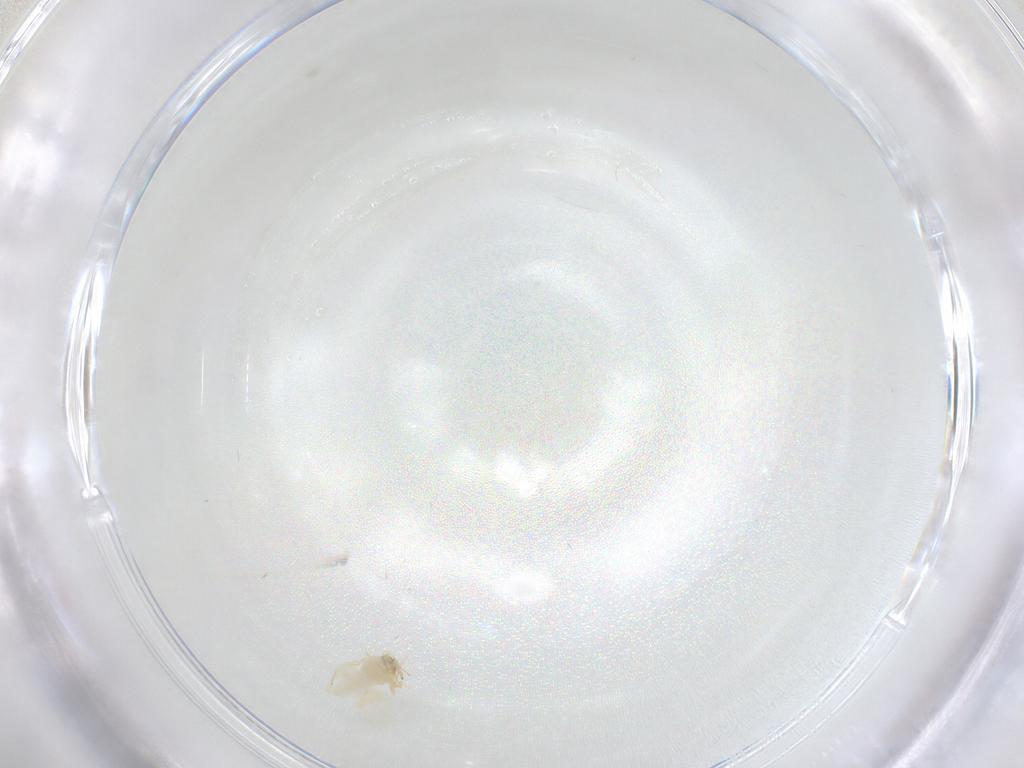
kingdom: Animalia
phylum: Arthropoda
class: Insecta
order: Hemiptera
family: Aleyrodidae
